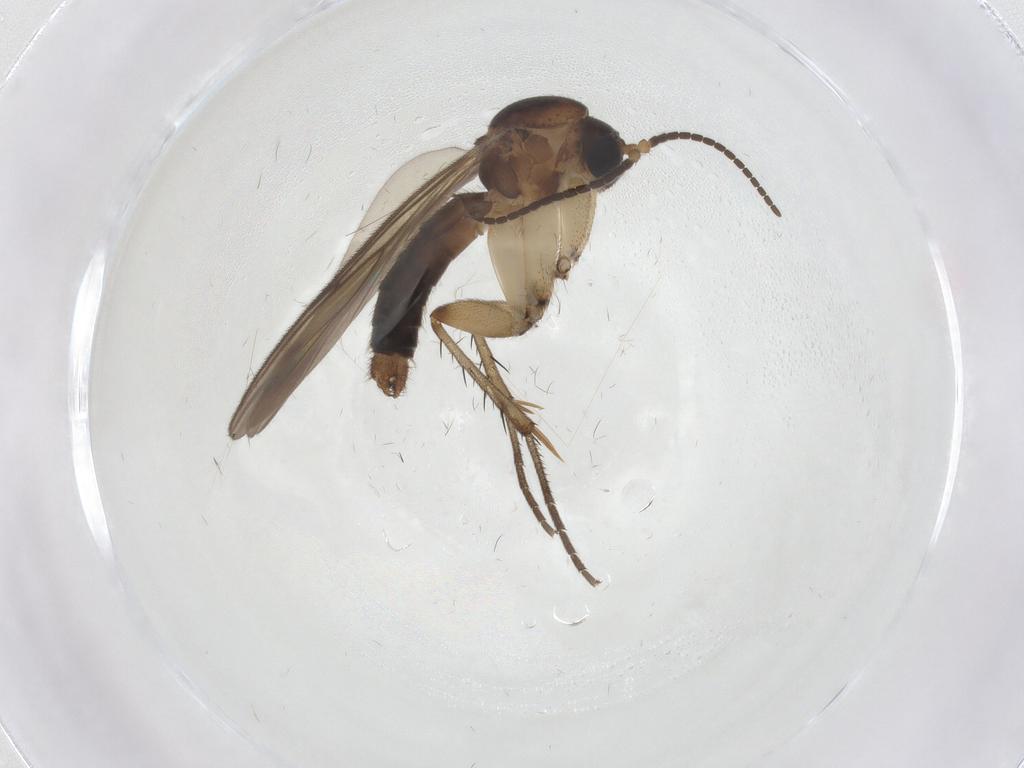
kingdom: Animalia
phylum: Arthropoda
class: Insecta
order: Diptera
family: Mycetophilidae
